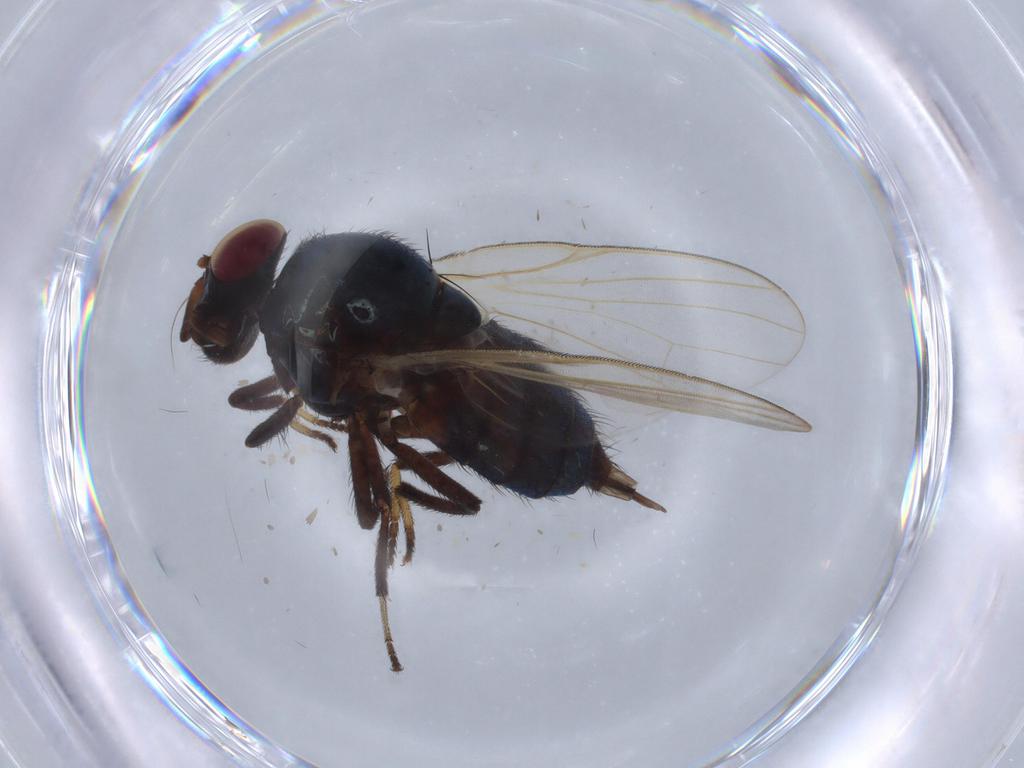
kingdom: Animalia
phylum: Arthropoda
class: Insecta
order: Diptera
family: Cecidomyiidae
